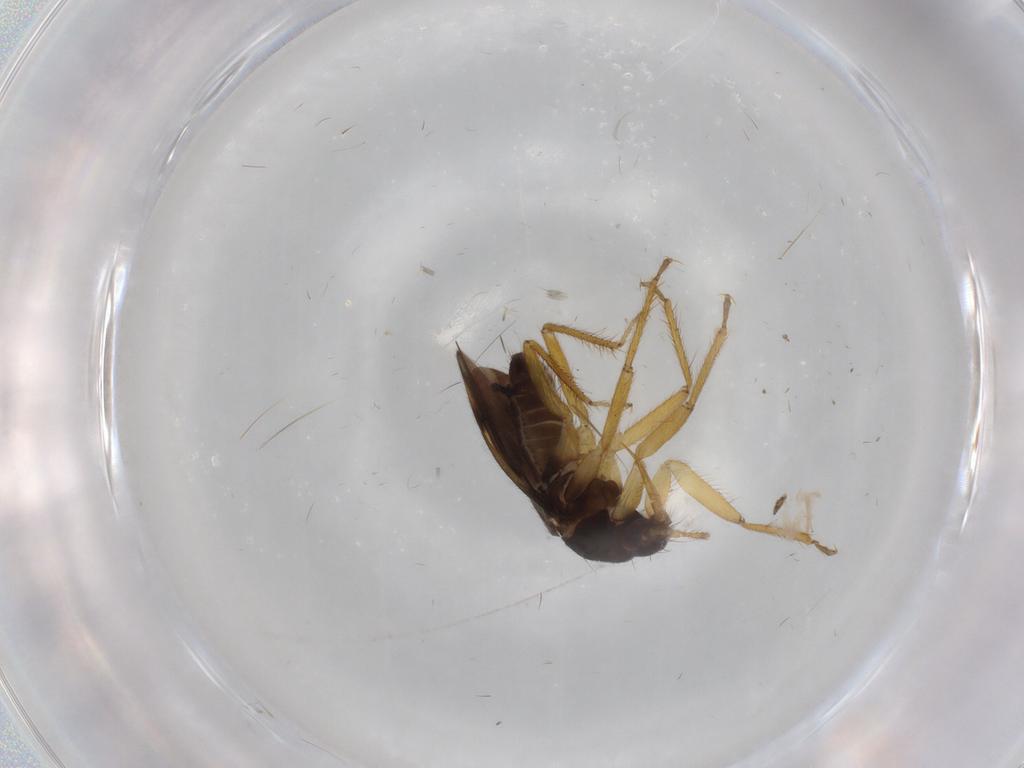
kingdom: Animalia
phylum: Arthropoda
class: Insecta
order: Hemiptera
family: Ceratocombidae
